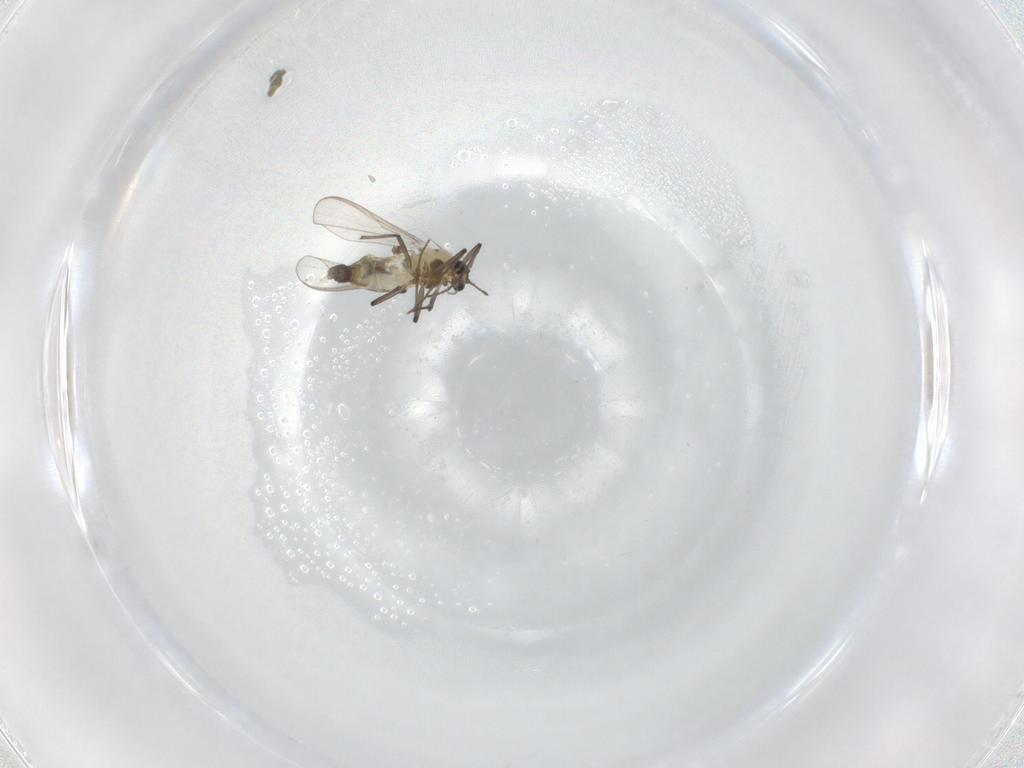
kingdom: Animalia
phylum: Arthropoda
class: Insecta
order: Diptera
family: Chironomidae
